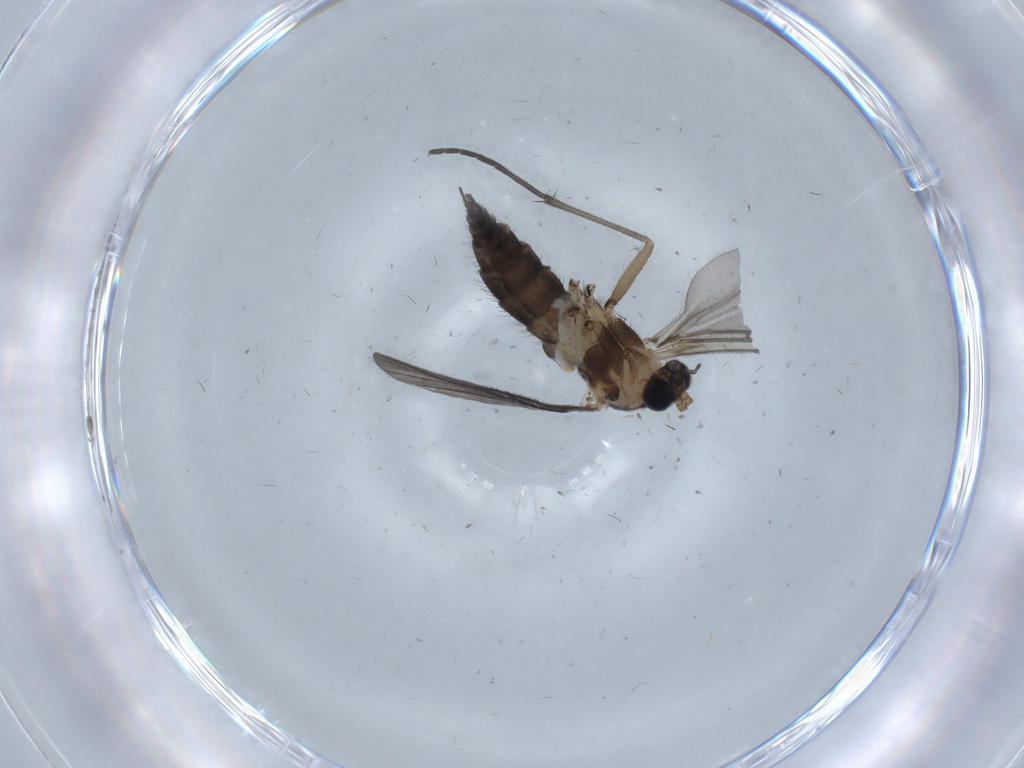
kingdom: Animalia
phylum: Arthropoda
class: Insecta
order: Diptera
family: Sciaridae
